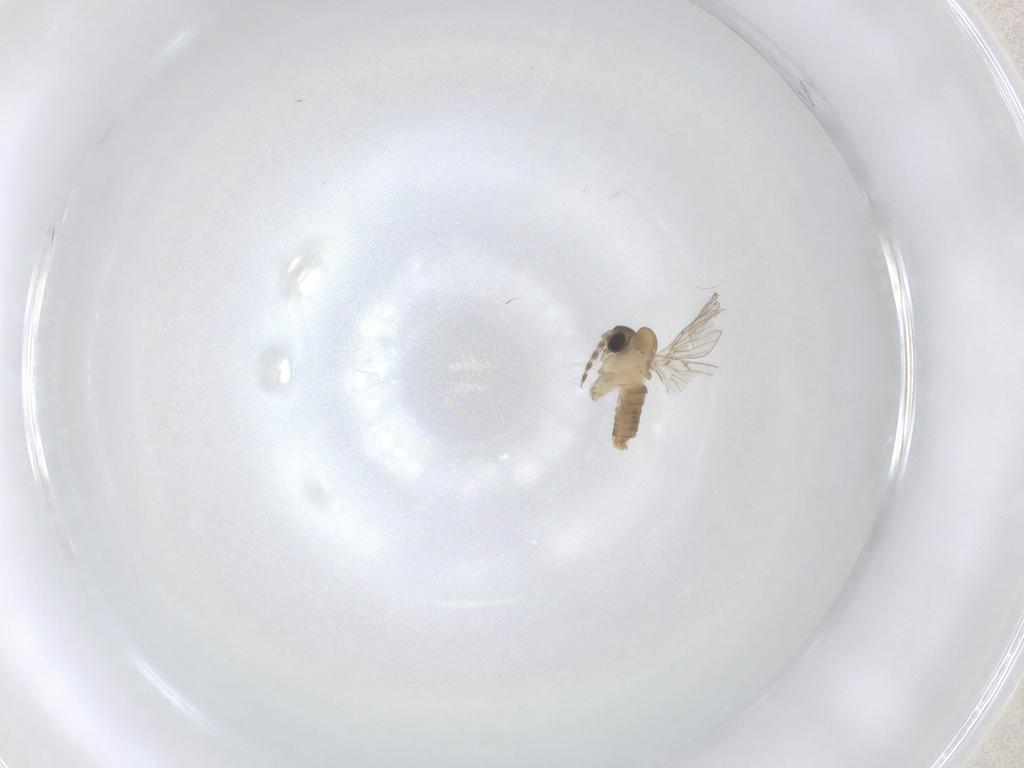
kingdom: Animalia
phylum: Arthropoda
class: Insecta
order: Diptera
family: Psychodidae
